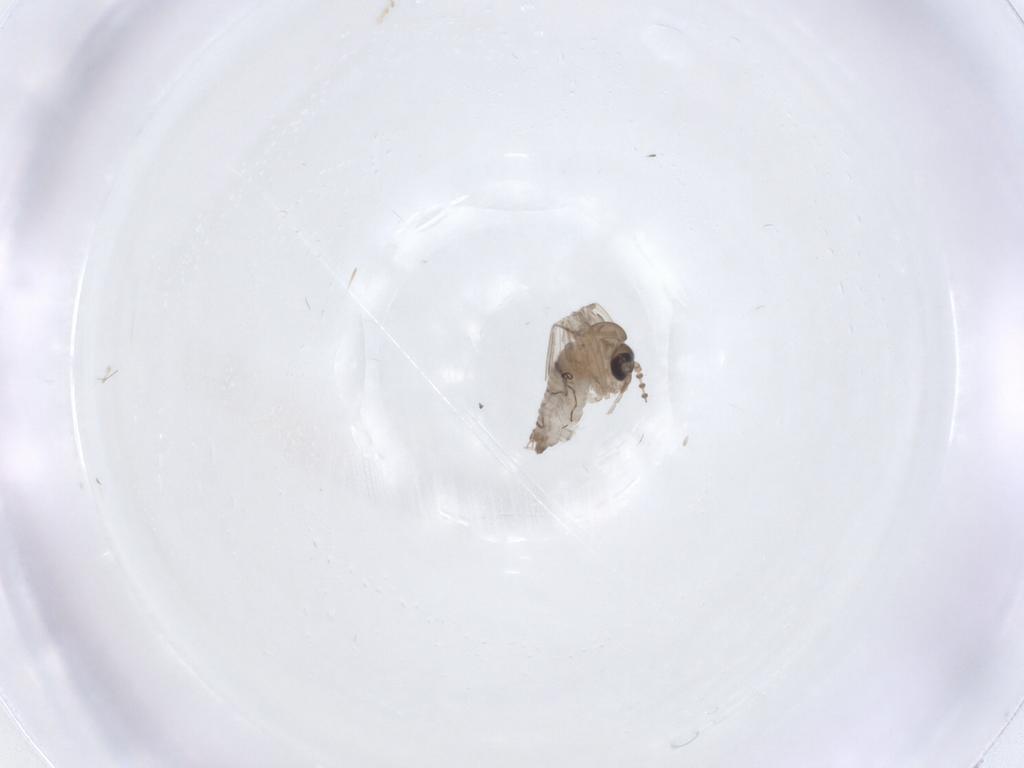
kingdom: Animalia
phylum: Arthropoda
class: Insecta
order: Diptera
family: Psychodidae
